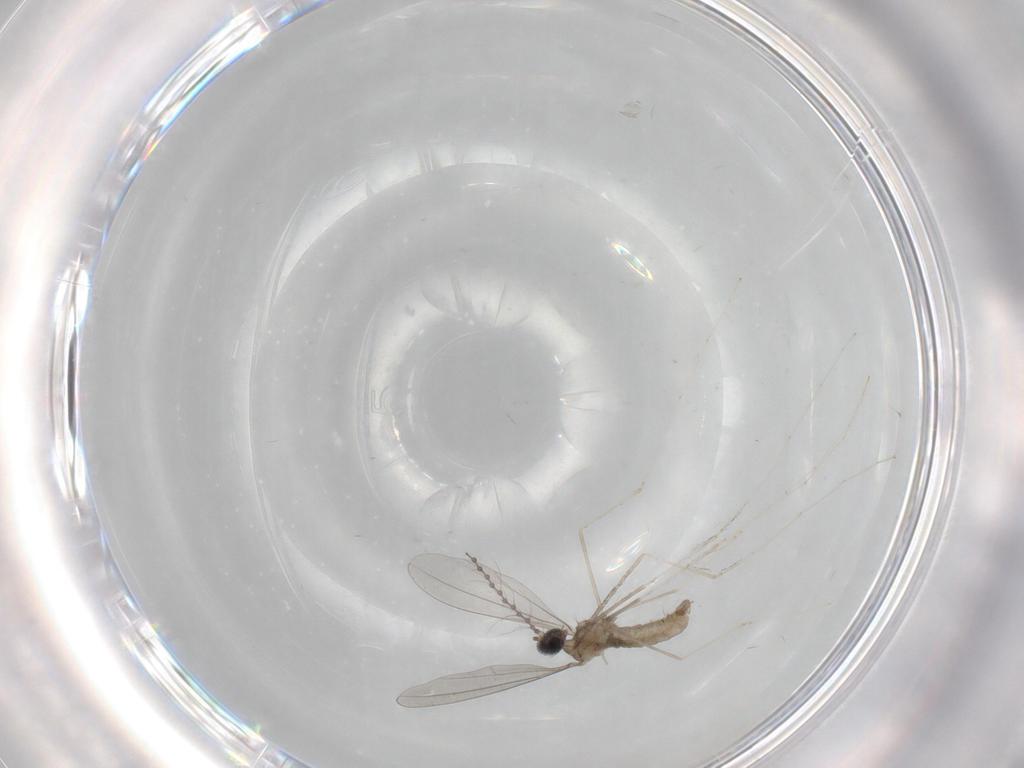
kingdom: Animalia
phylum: Arthropoda
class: Insecta
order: Diptera
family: Cecidomyiidae
